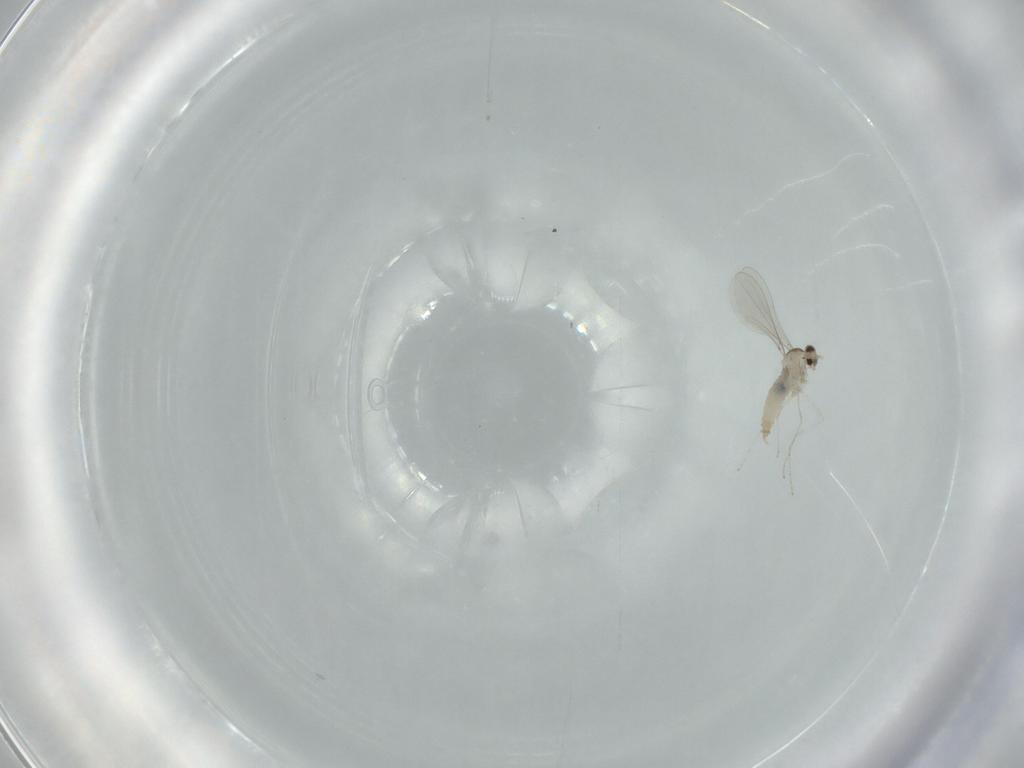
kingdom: Animalia
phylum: Arthropoda
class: Insecta
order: Diptera
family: Cecidomyiidae
